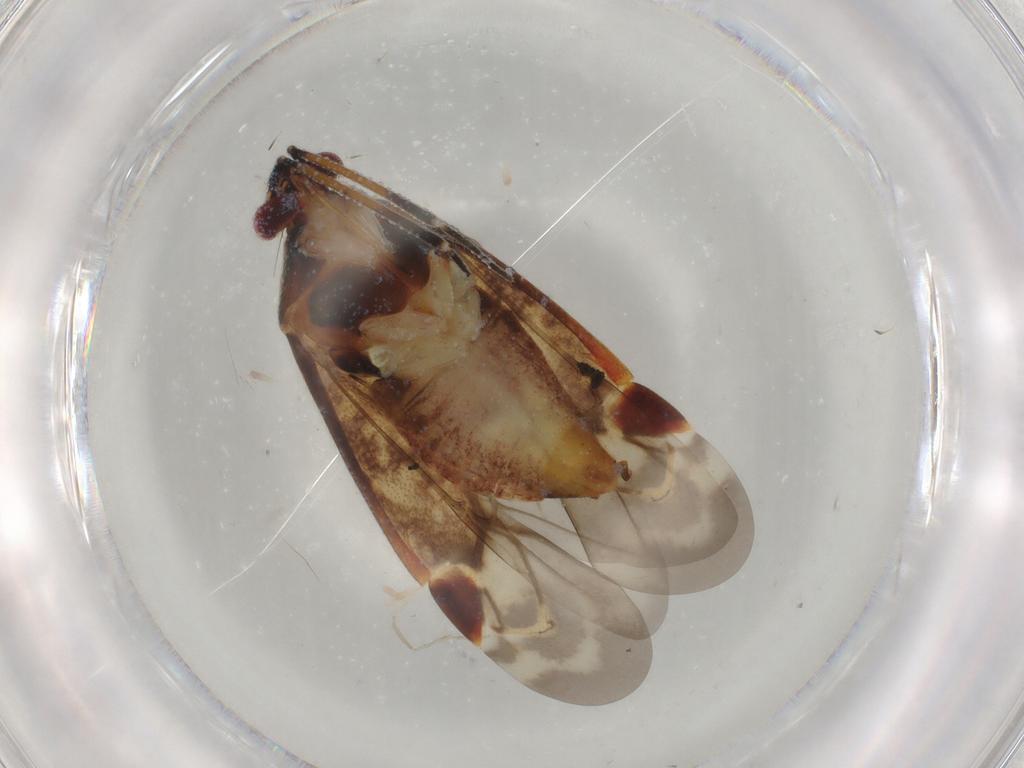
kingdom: Animalia
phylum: Arthropoda
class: Insecta
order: Hemiptera
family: Miridae
